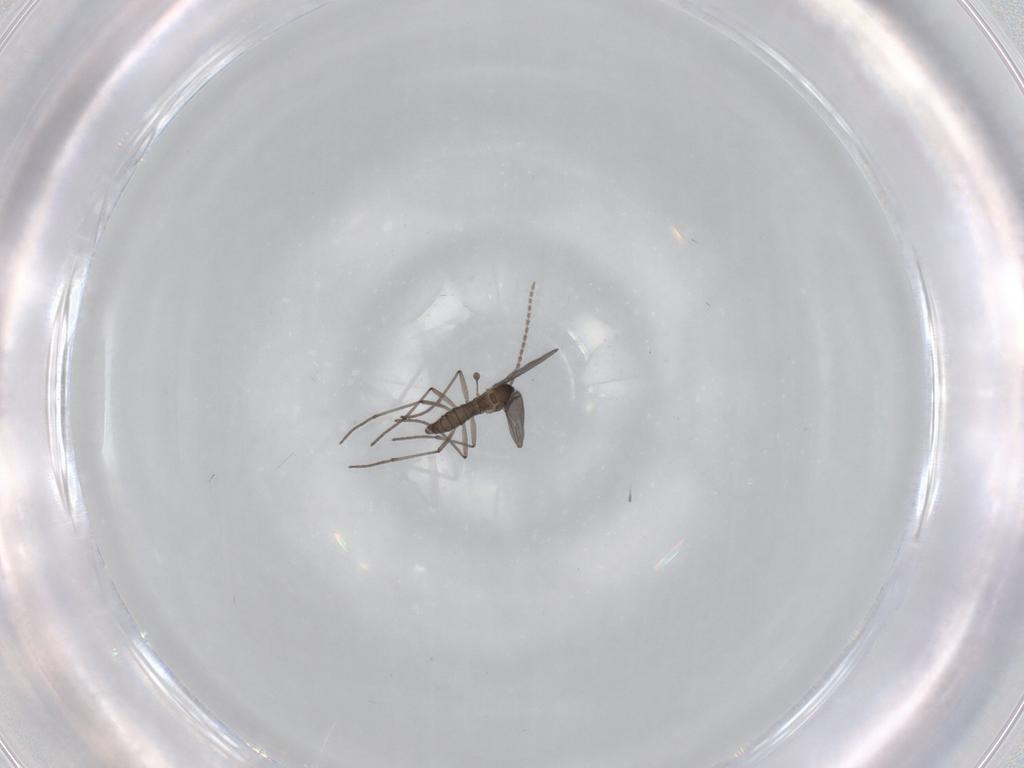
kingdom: Animalia
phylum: Arthropoda
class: Insecta
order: Diptera
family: Sciaridae
